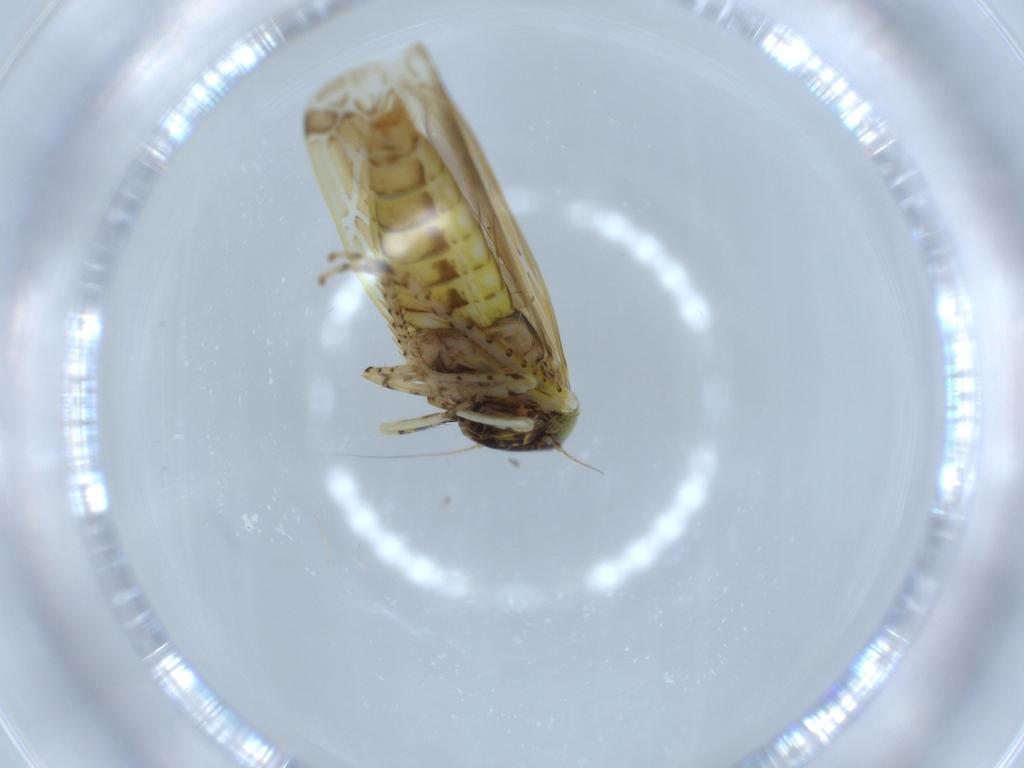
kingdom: Animalia
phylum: Arthropoda
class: Insecta
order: Hemiptera
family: Cicadellidae
